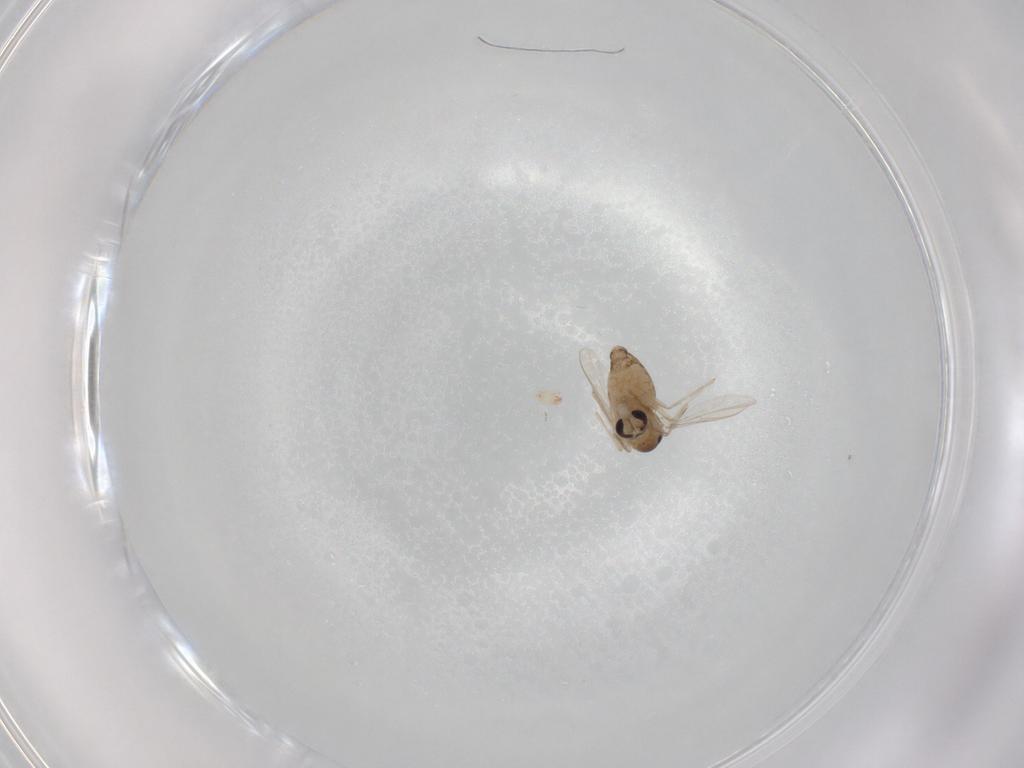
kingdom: Animalia
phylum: Arthropoda
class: Insecta
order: Diptera
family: Chironomidae
